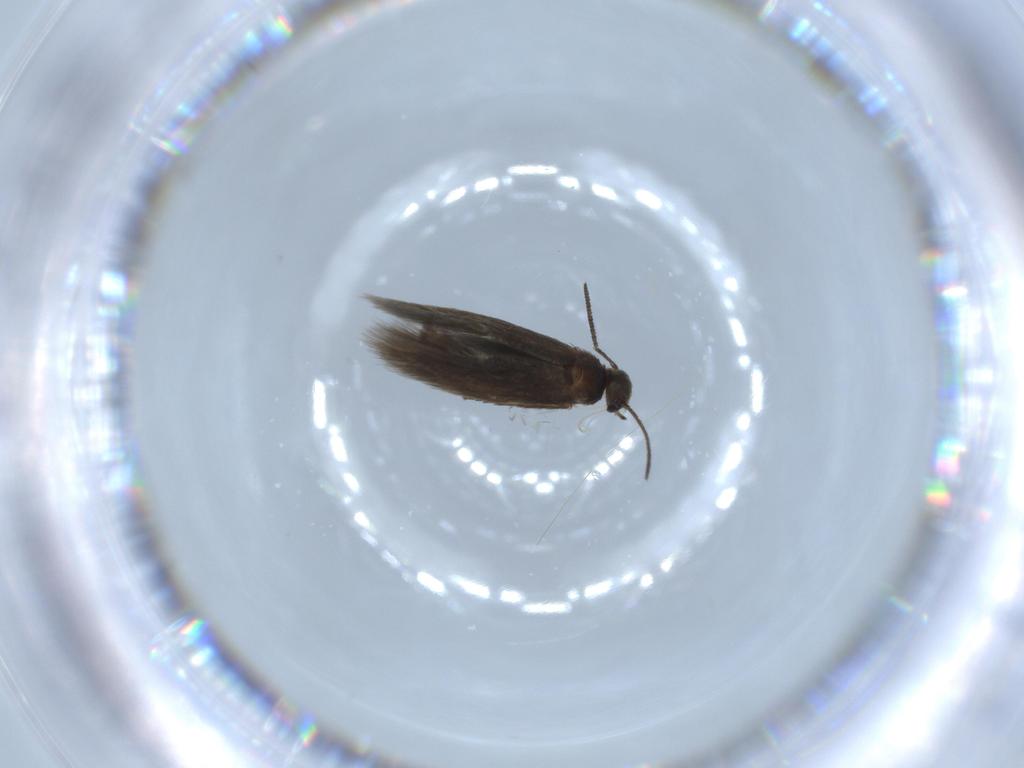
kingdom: Animalia
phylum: Arthropoda
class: Insecta
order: Lepidoptera
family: Heliozelidae
